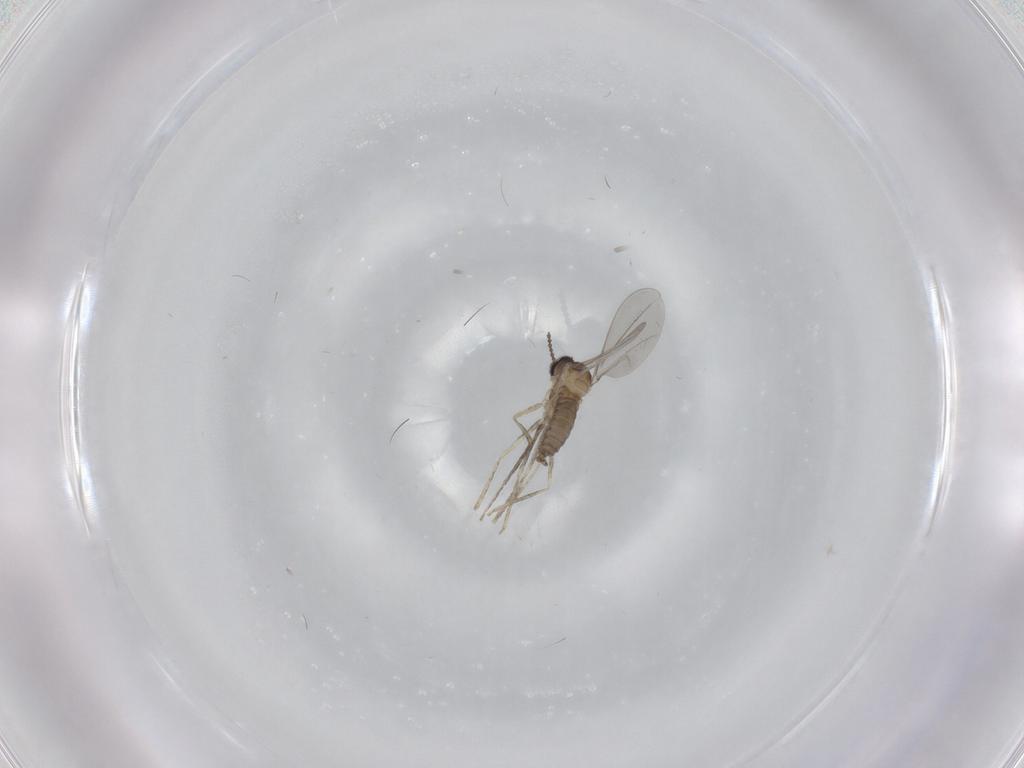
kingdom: Animalia
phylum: Arthropoda
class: Insecta
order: Diptera
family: Cecidomyiidae
